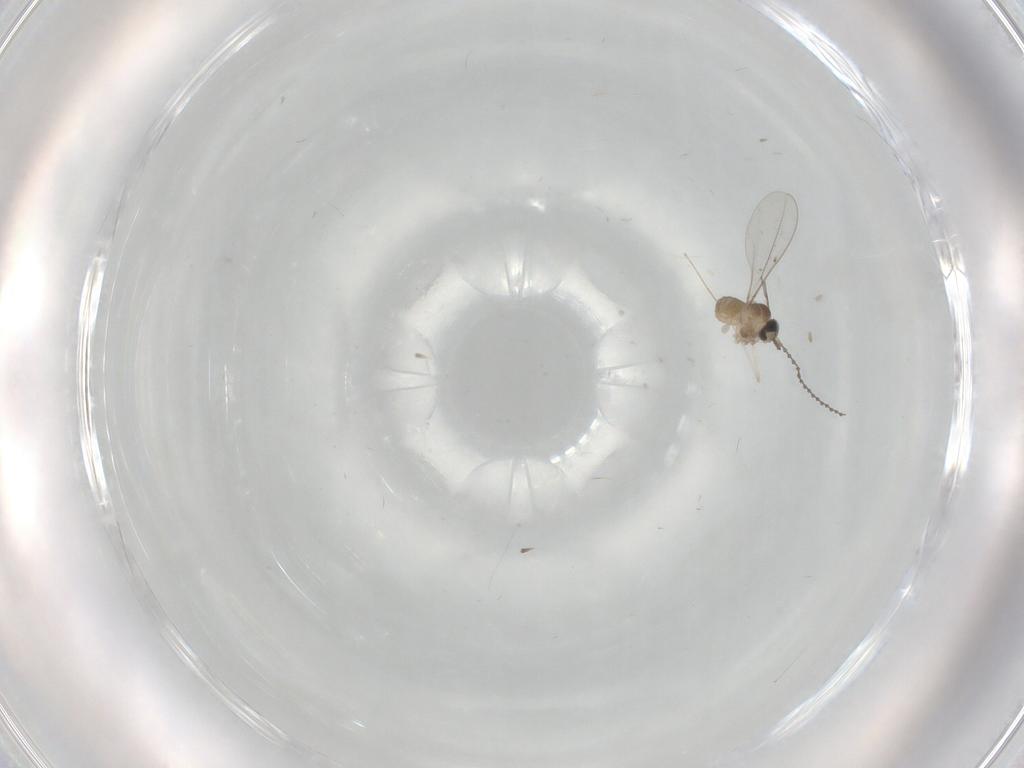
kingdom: Animalia
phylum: Arthropoda
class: Insecta
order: Diptera
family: Cecidomyiidae
